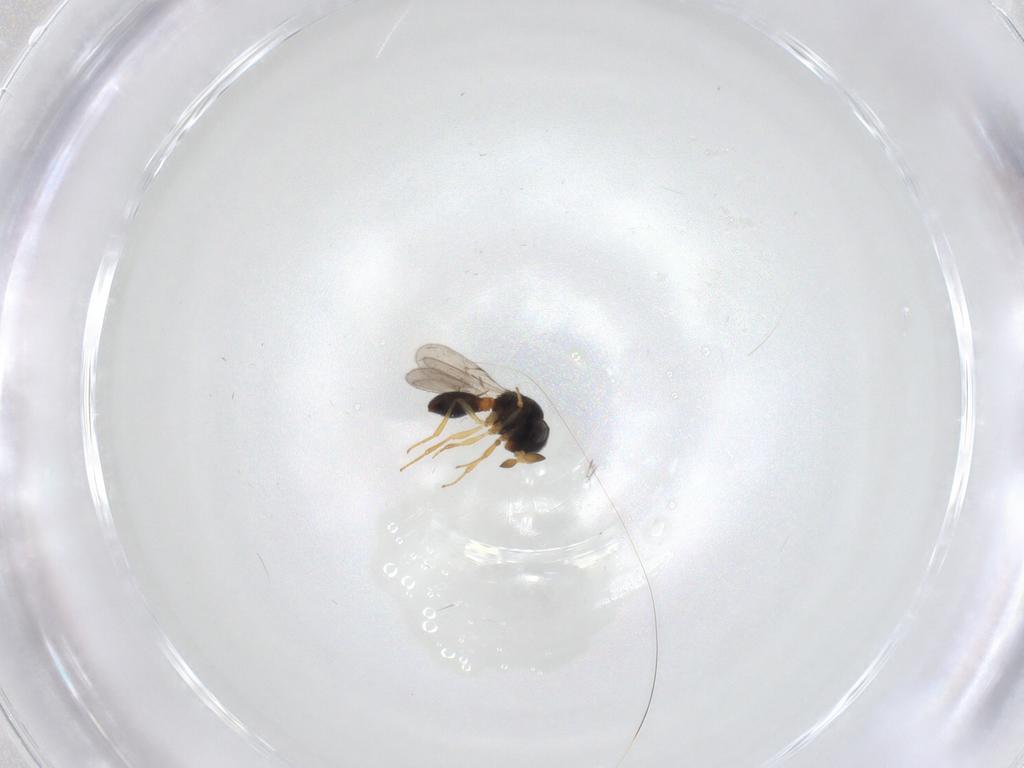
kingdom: Animalia
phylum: Arthropoda
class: Insecta
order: Hymenoptera
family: Scelionidae
